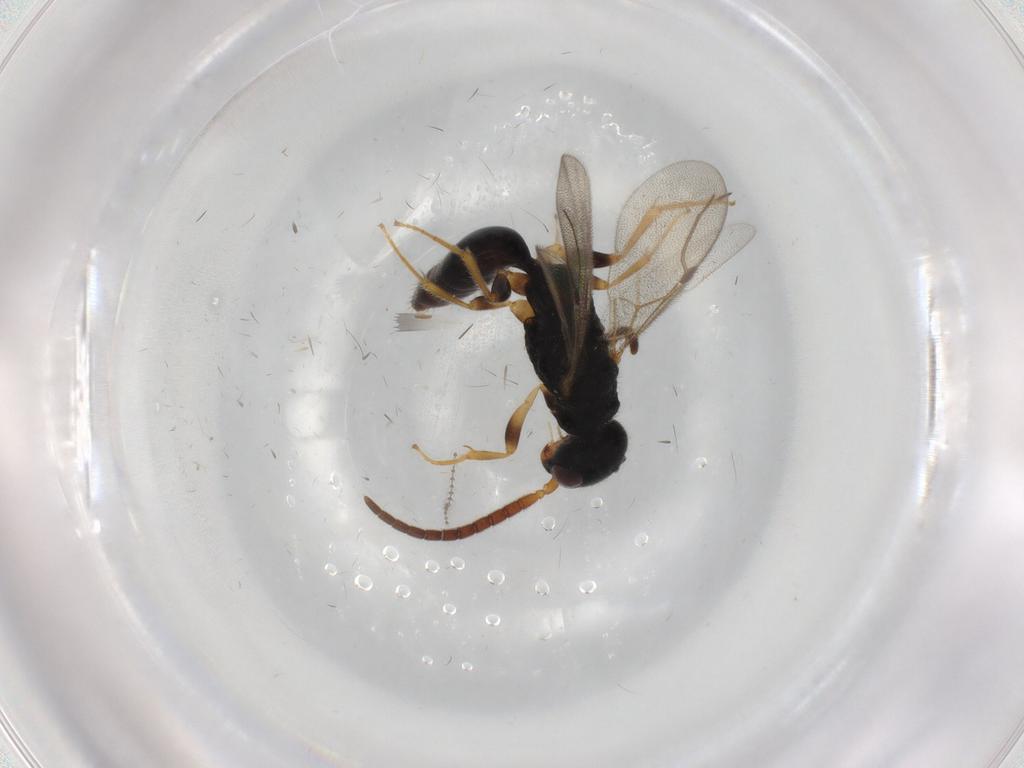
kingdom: Animalia
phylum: Arthropoda
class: Insecta
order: Hymenoptera
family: Bethylidae
